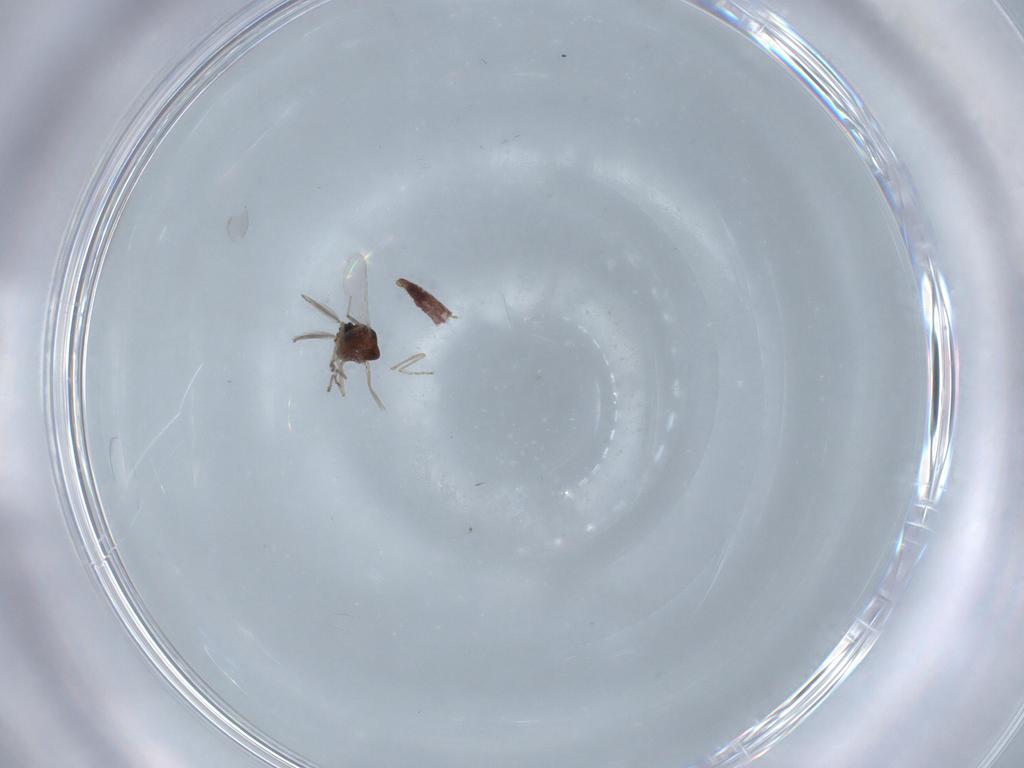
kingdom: Animalia
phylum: Arthropoda
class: Insecta
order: Diptera
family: Ceratopogonidae
